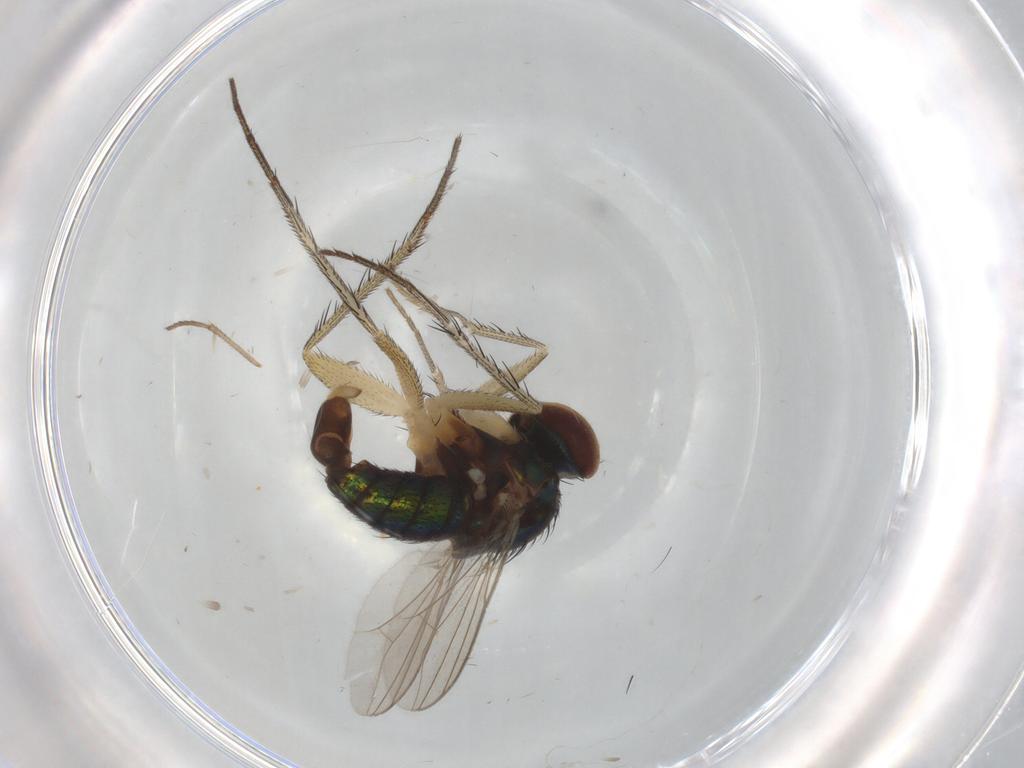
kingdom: Animalia
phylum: Arthropoda
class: Insecta
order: Diptera
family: Dolichopodidae
